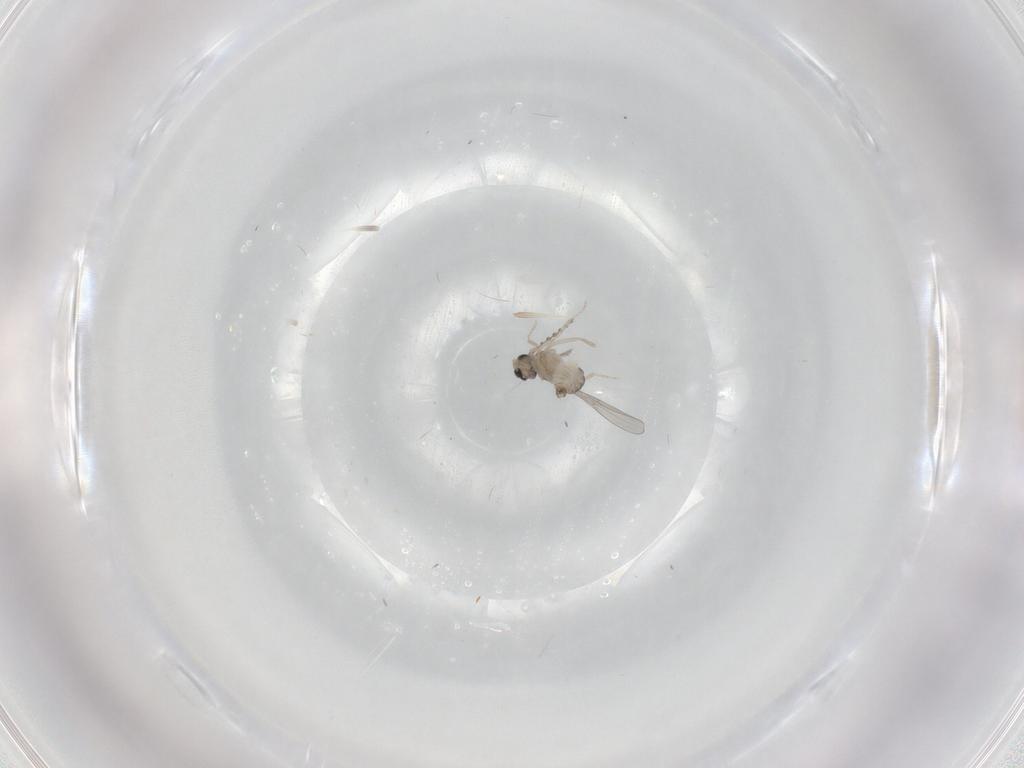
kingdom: Animalia
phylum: Arthropoda
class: Insecta
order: Diptera
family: Cecidomyiidae
